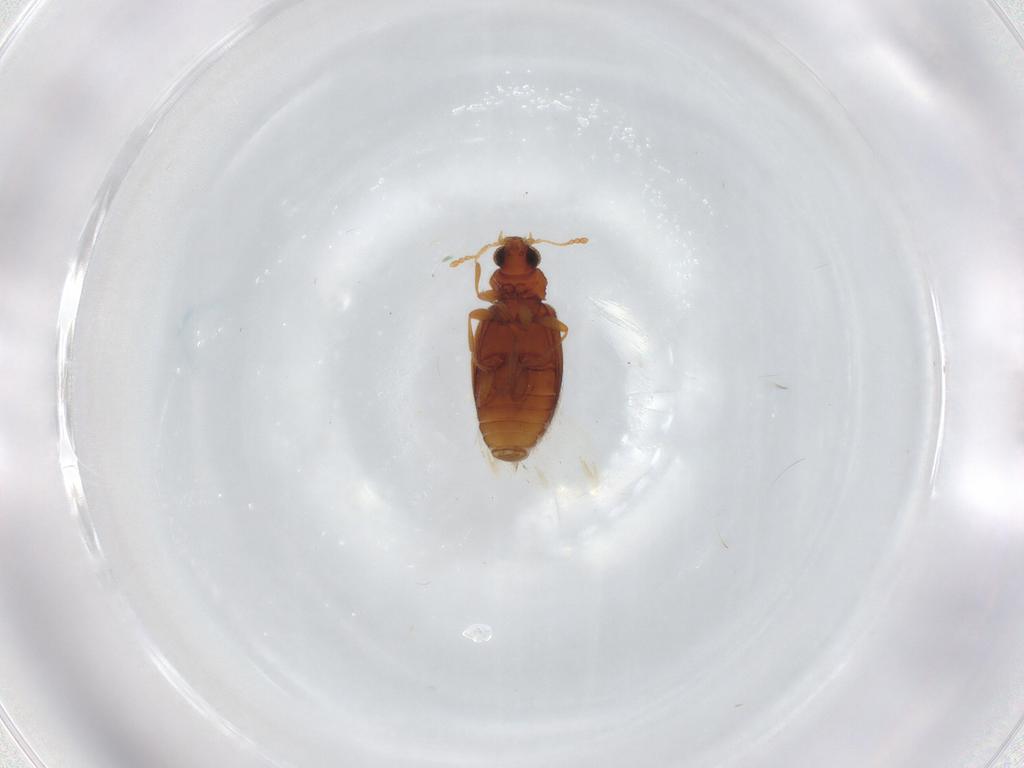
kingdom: Animalia
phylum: Arthropoda
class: Insecta
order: Coleoptera
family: Latridiidae
